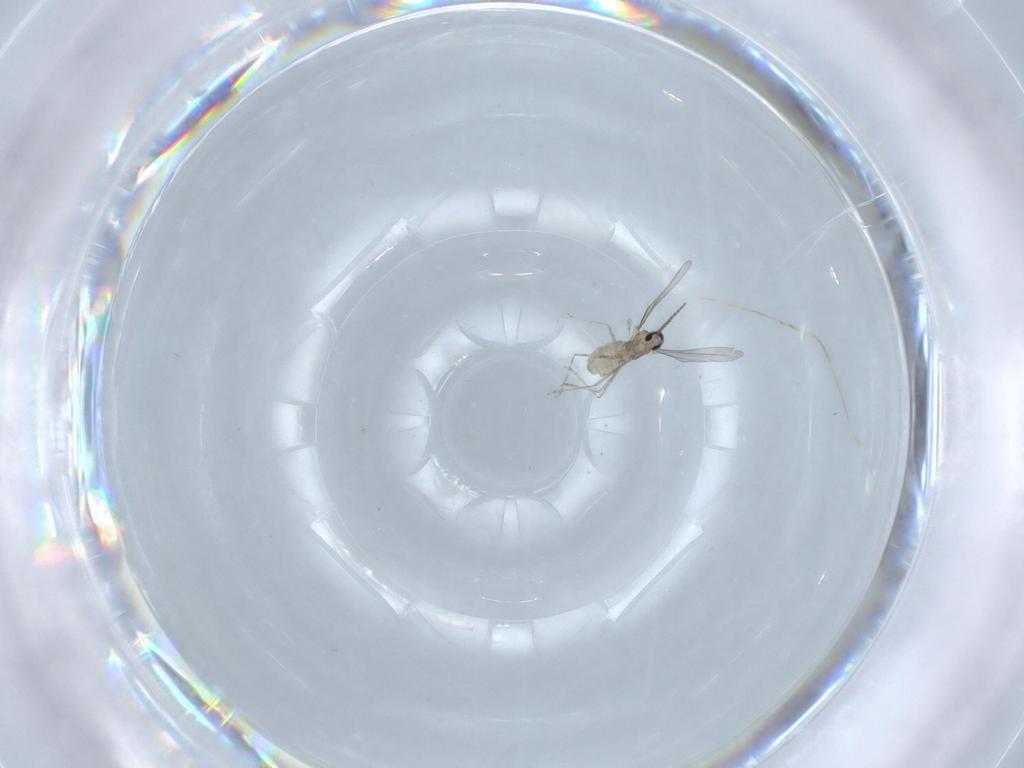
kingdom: Animalia
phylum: Arthropoda
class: Insecta
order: Diptera
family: Cecidomyiidae
